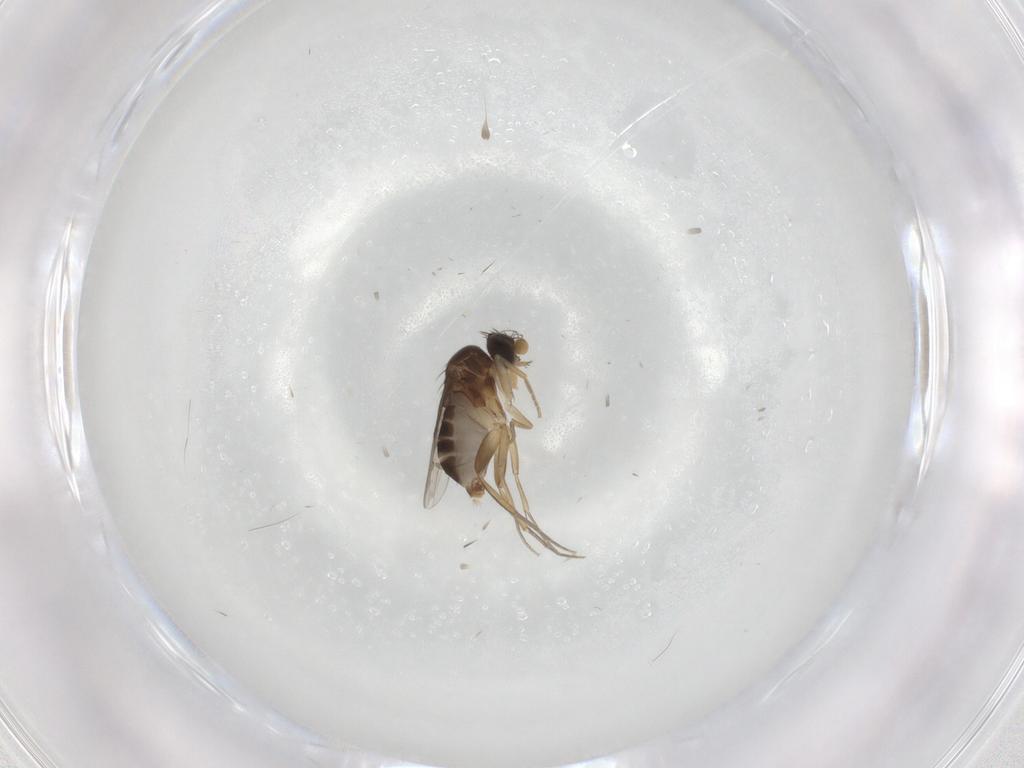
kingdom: Animalia
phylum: Arthropoda
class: Insecta
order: Diptera
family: Phoridae
